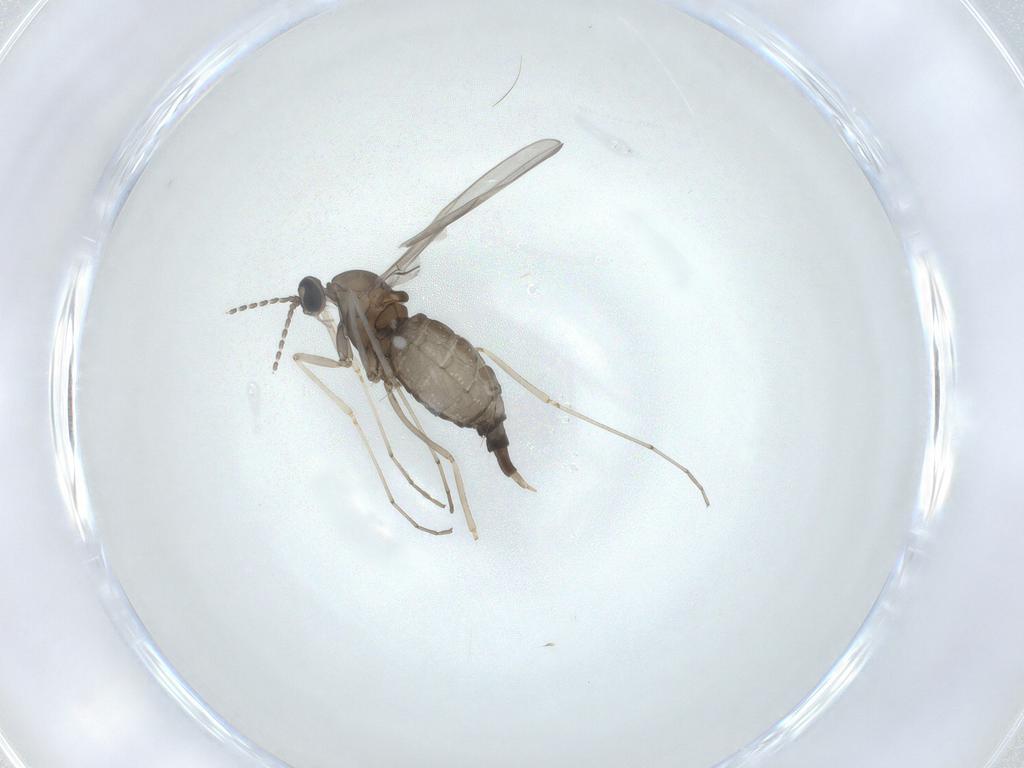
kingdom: Animalia
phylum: Arthropoda
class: Insecta
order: Diptera
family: Cecidomyiidae
